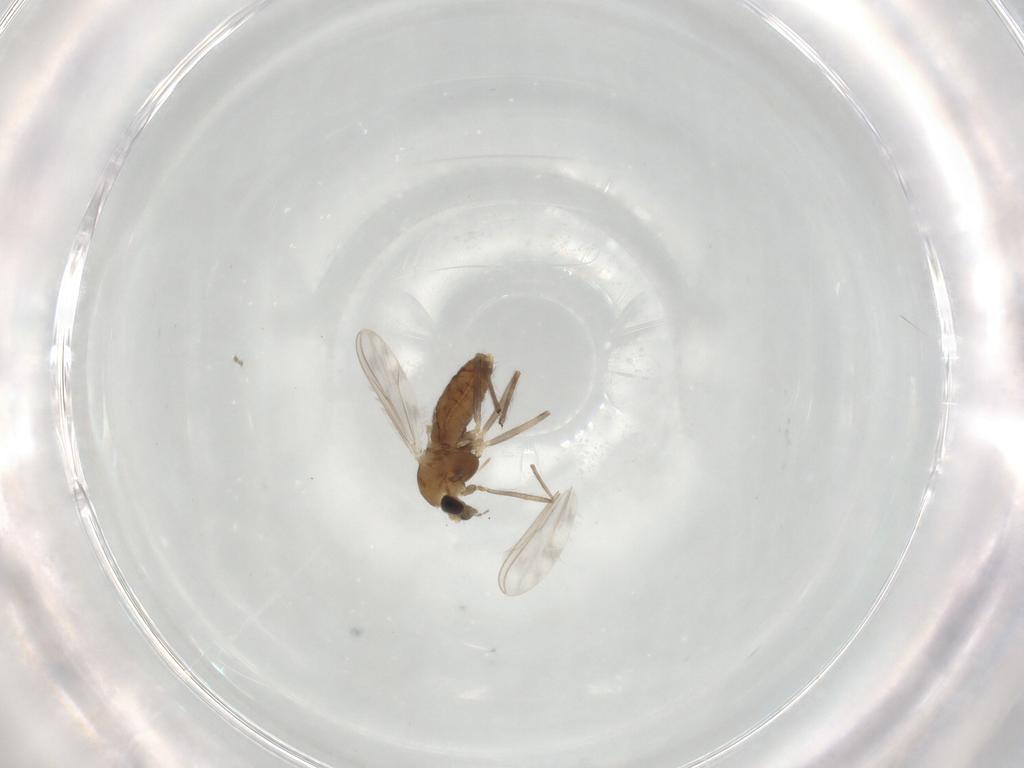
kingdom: Animalia
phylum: Arthropoda
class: Insecta
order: Diptera
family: Chironomidae
